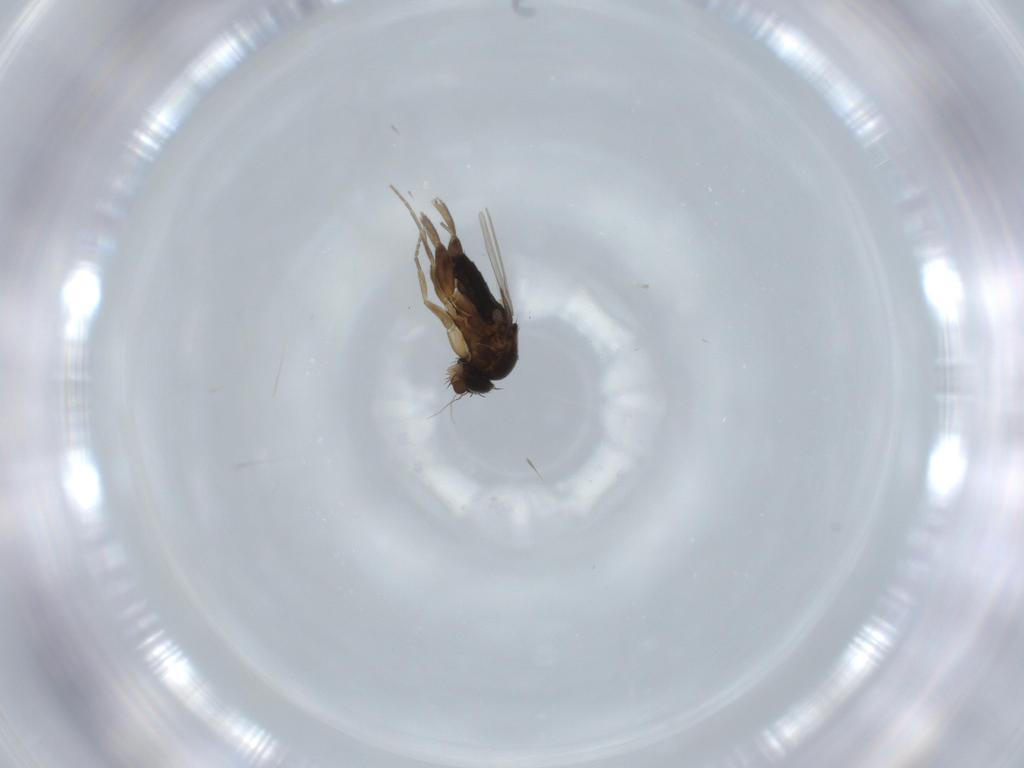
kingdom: Animalia
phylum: Arthropoda
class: Insecta
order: Diptera
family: Phoridae
